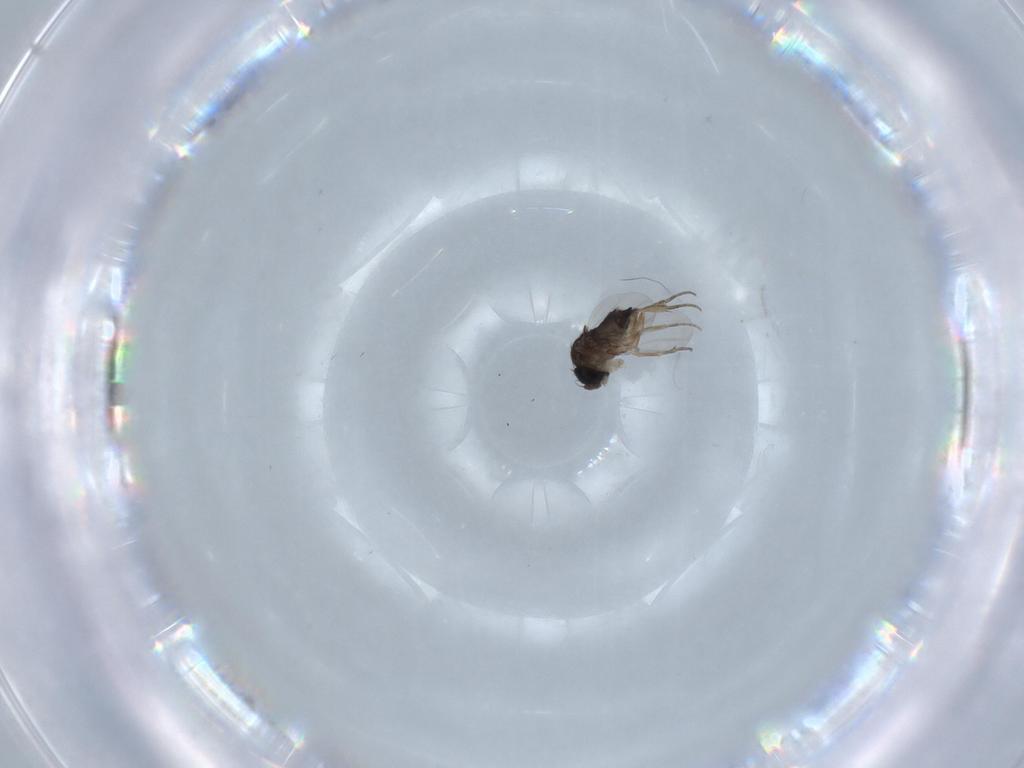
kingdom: Animalia
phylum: Arthropoda
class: Insecta
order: Diptera
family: Phoridae
